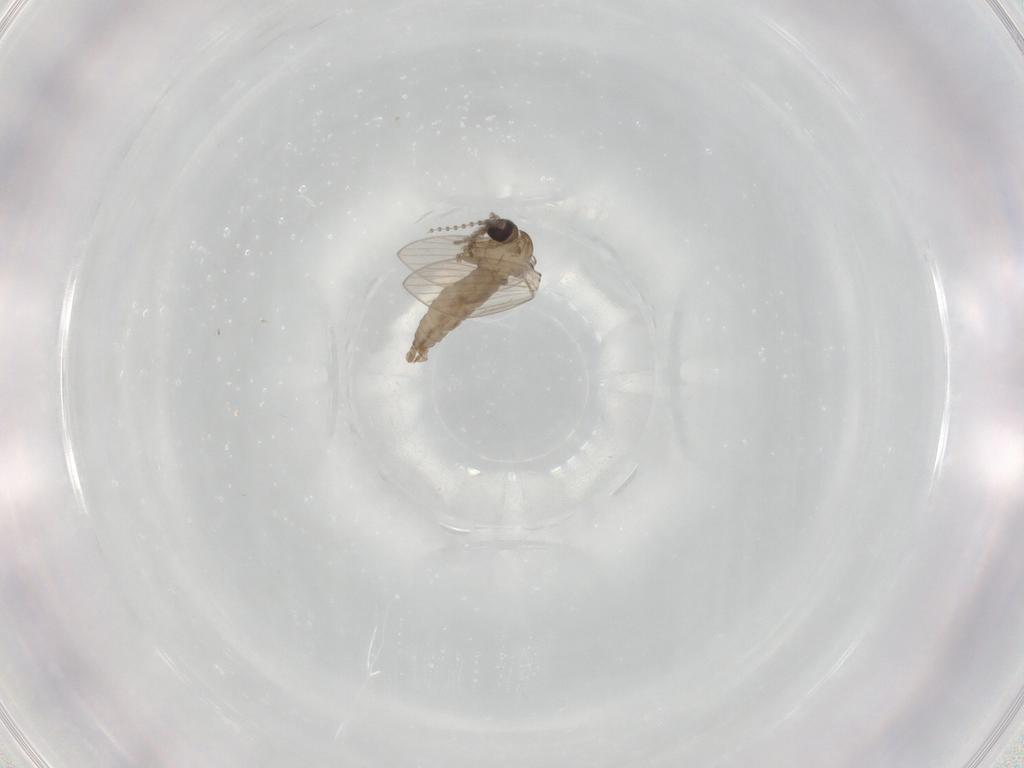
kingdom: Animalia
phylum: Arthropoda
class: Insecta
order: Diptera
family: Psychodidae
